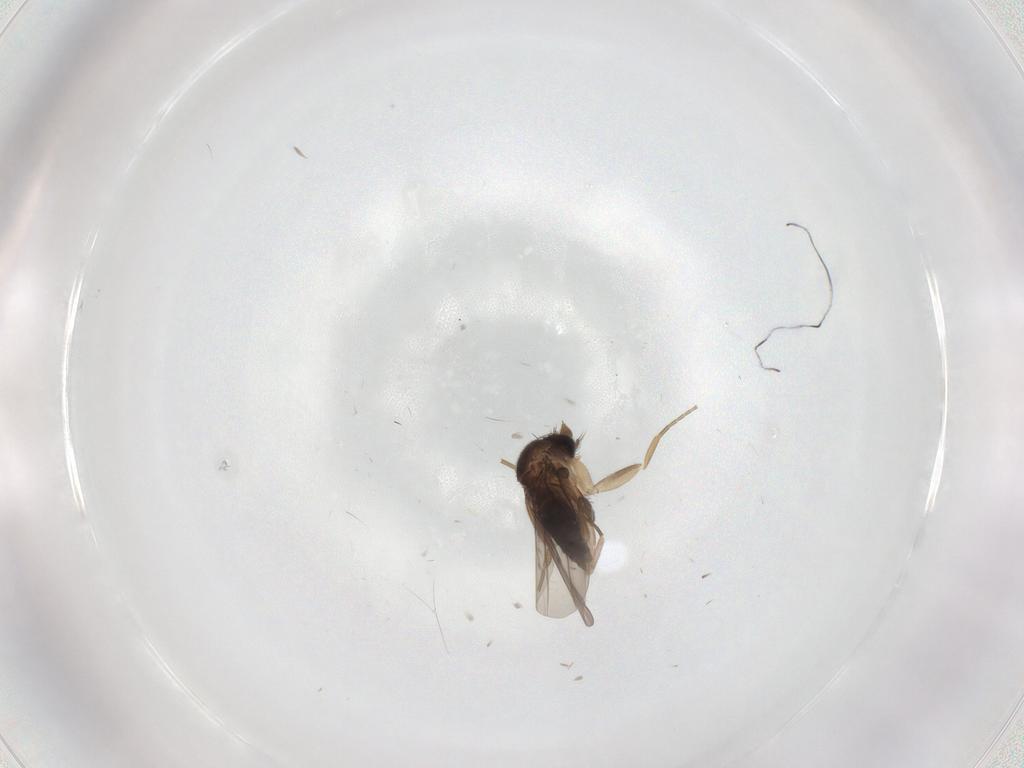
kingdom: Animalia
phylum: Arthropoda
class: Insecta
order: Diptera
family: Phoridae
